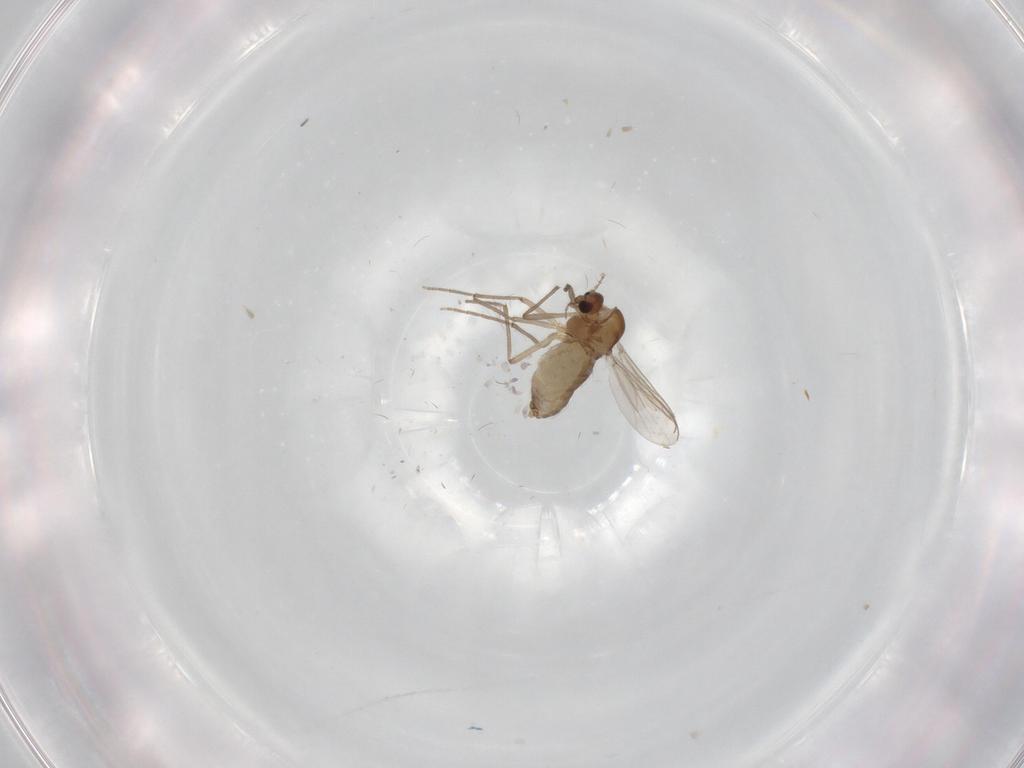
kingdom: Animalia
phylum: Arthropoda
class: Insecta
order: Diptera
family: Chironomidae
